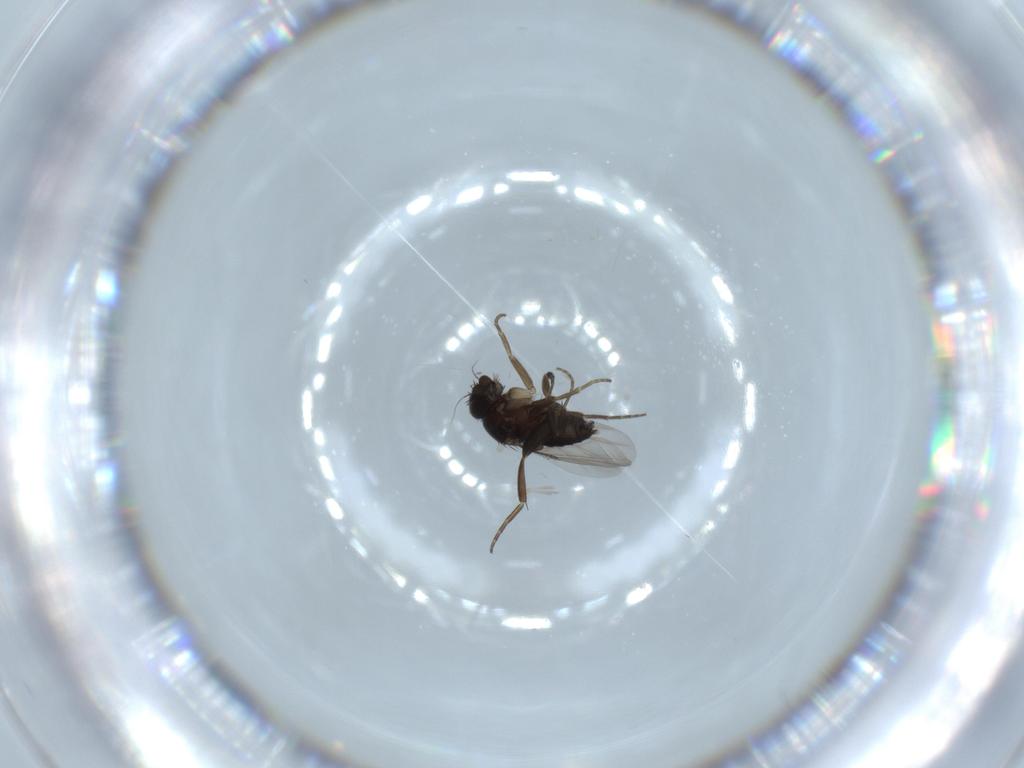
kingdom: Animalia
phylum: Arthropoda
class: Insecta
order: Diptera
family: Phoridae
